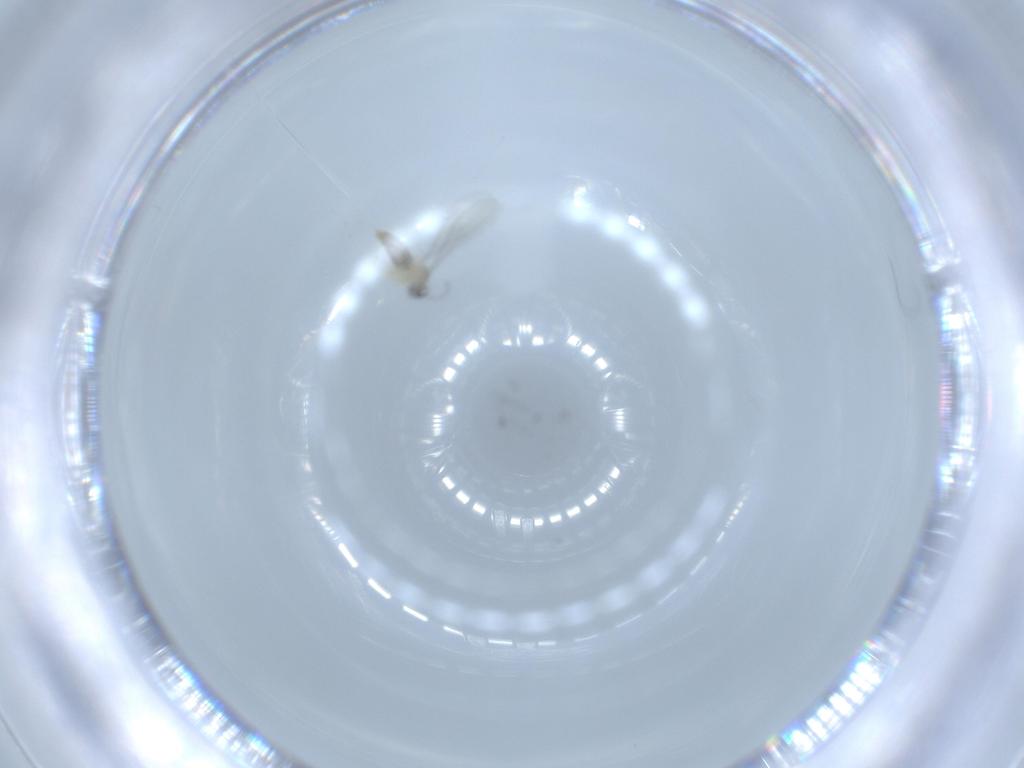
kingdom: Animalia
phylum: Arthropoda
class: Insecta
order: Diptera
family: Sciaridae
